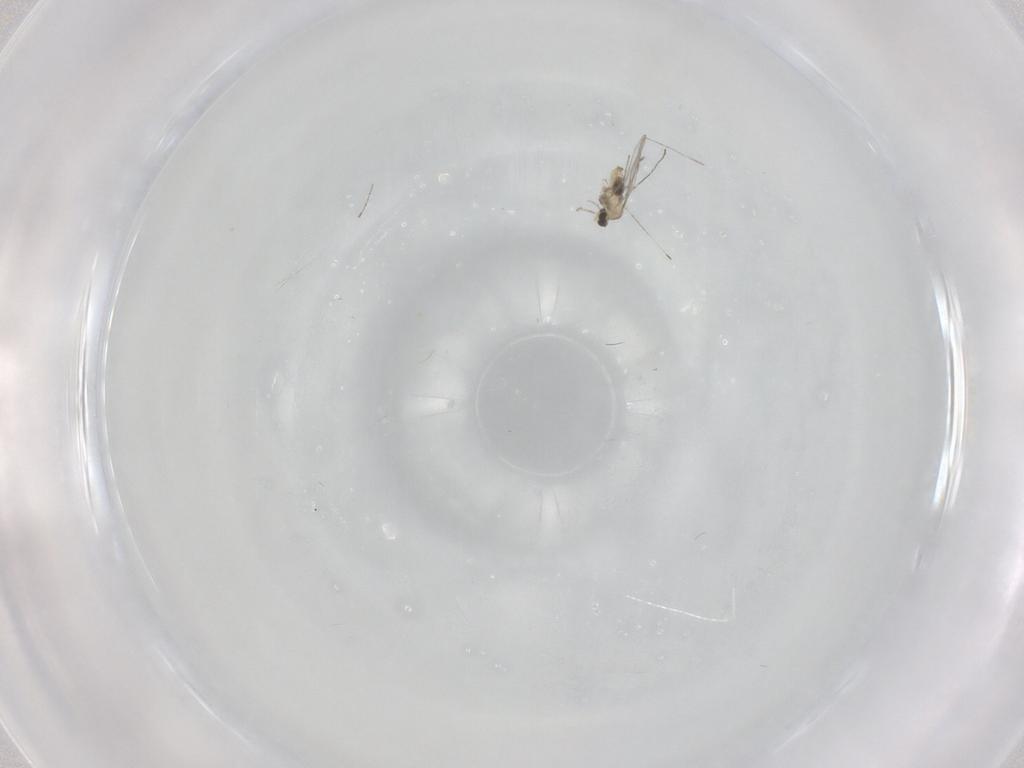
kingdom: Animalia
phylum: Arthropoda
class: Insecta
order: Diptera
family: Cecidomyiidae
